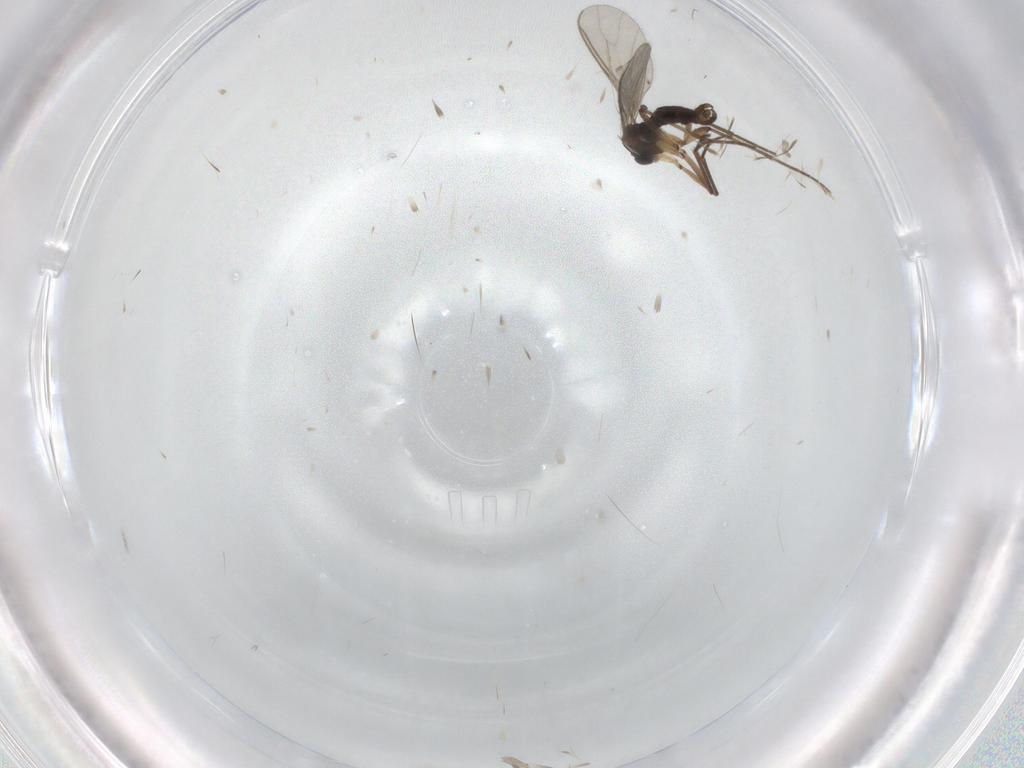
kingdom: Animalia
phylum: Arthropoda
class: Insecta
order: Diptera
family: Sciaridae
